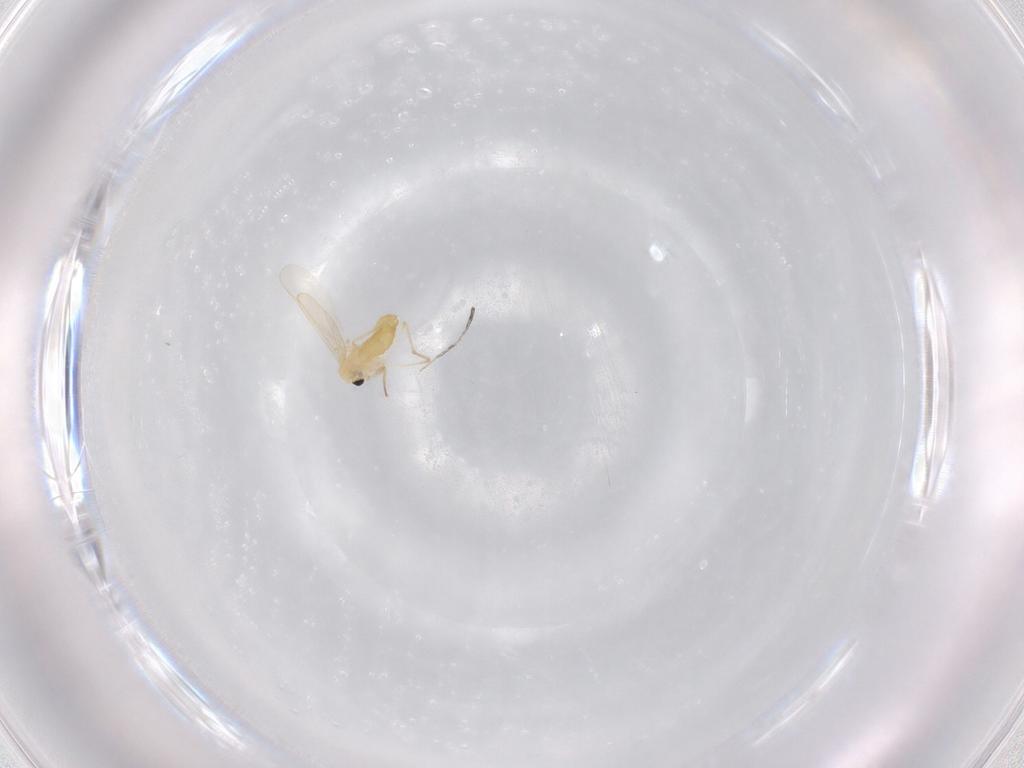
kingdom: Animalia
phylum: Arthropoda
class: Insecta
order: Diptera
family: Chironomidae
